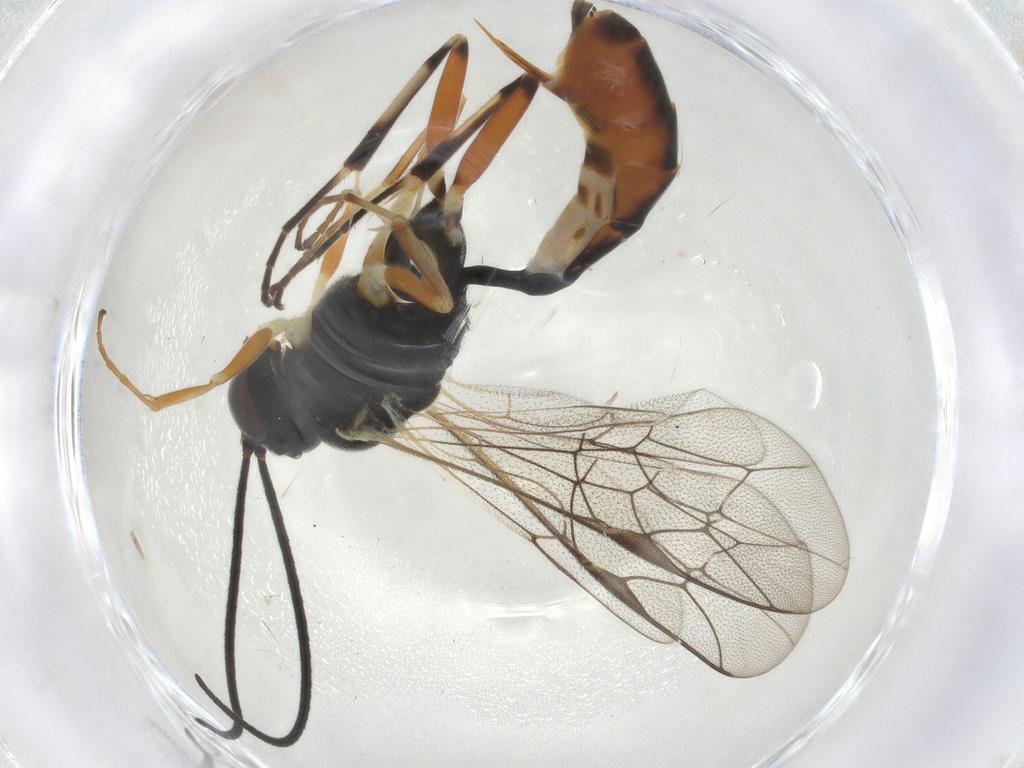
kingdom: Animalia
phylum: Arthropoda
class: Insecta
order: Hymenoptera
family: Ichneumonidae
